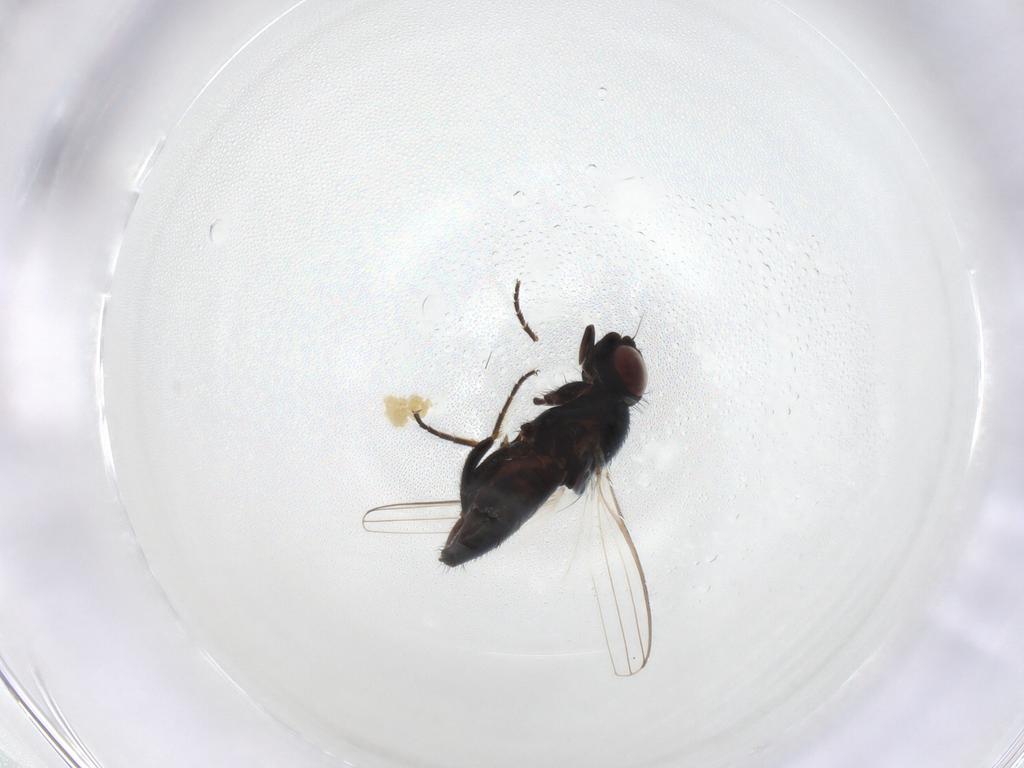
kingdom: Animalia
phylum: Arthropoda
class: Insecta
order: Diptera
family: Milichiidae
